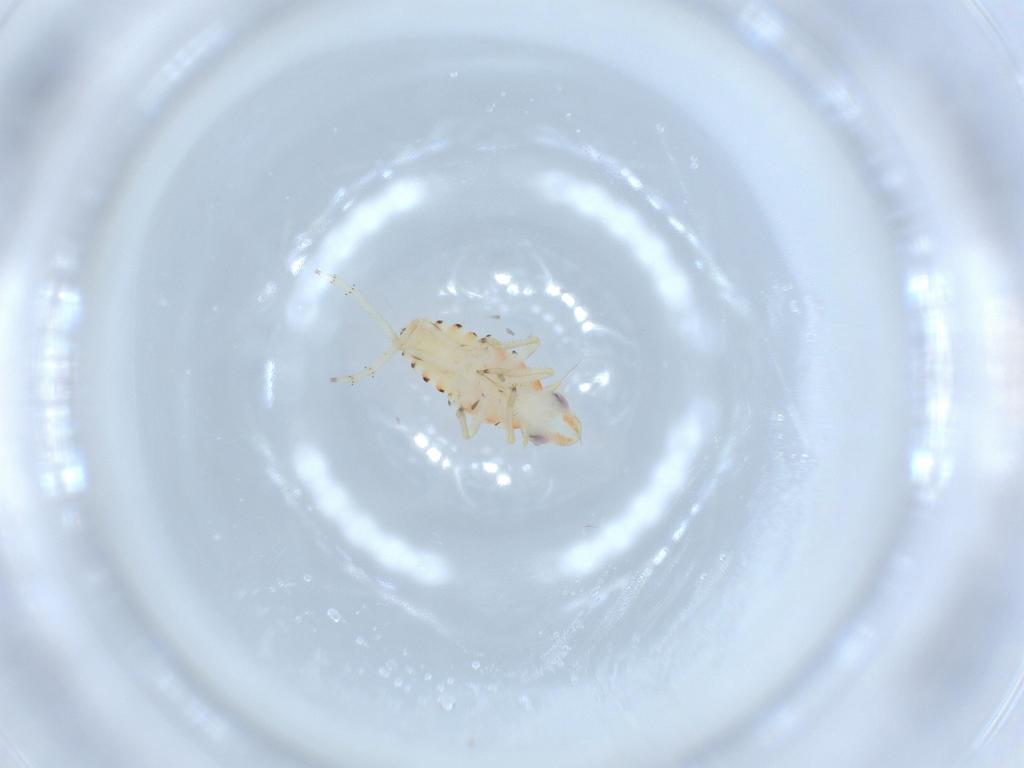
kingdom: Animalia
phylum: Arthropoda
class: Insecta
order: Hemiptera
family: Tropiduchidae
